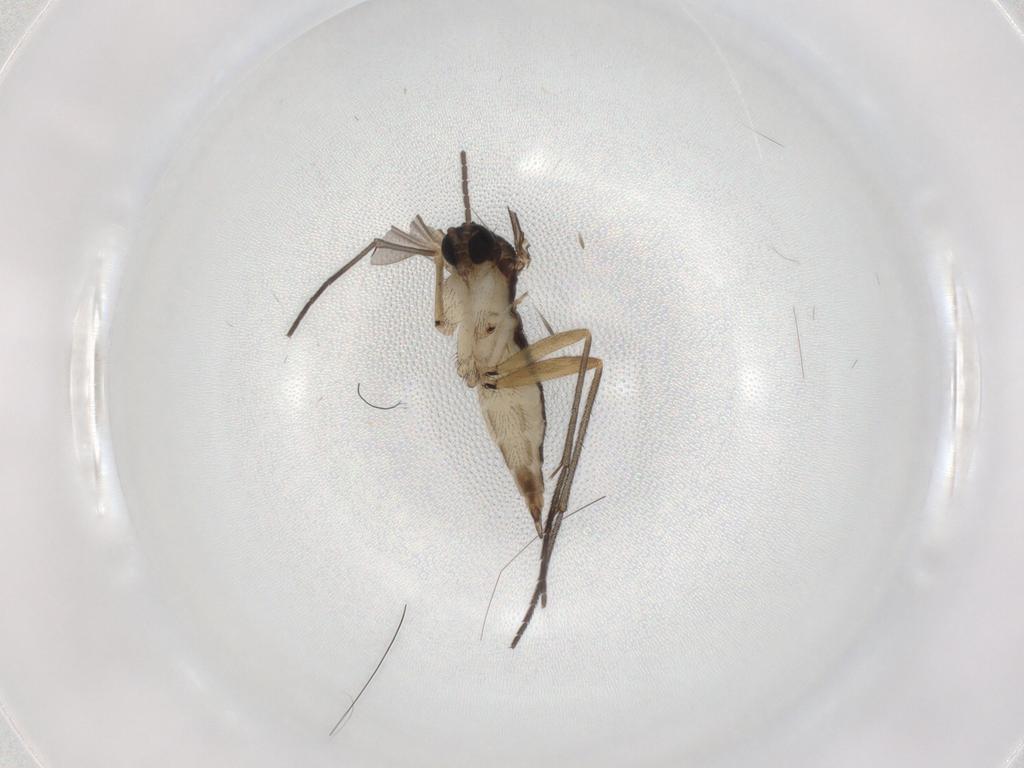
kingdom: Animalia
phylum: Arthropoda
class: Insecta
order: Diptera
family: Sciaridae
